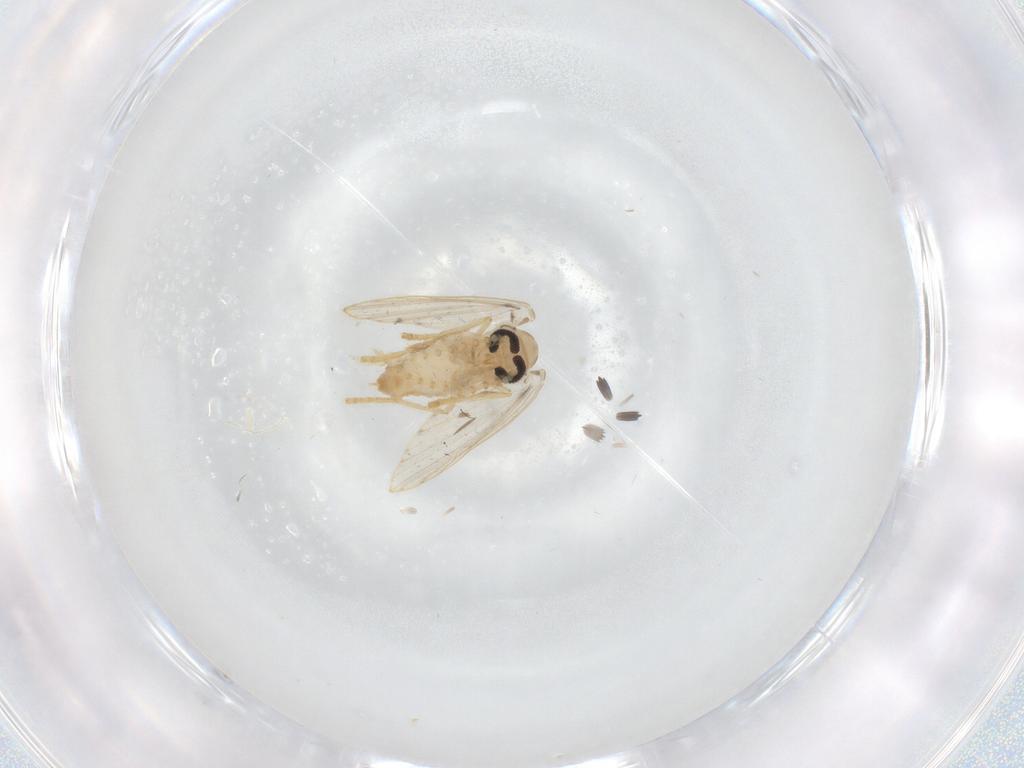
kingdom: Animalia
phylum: Arthropoda
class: Insecta
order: Diptera
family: Psychodidae
